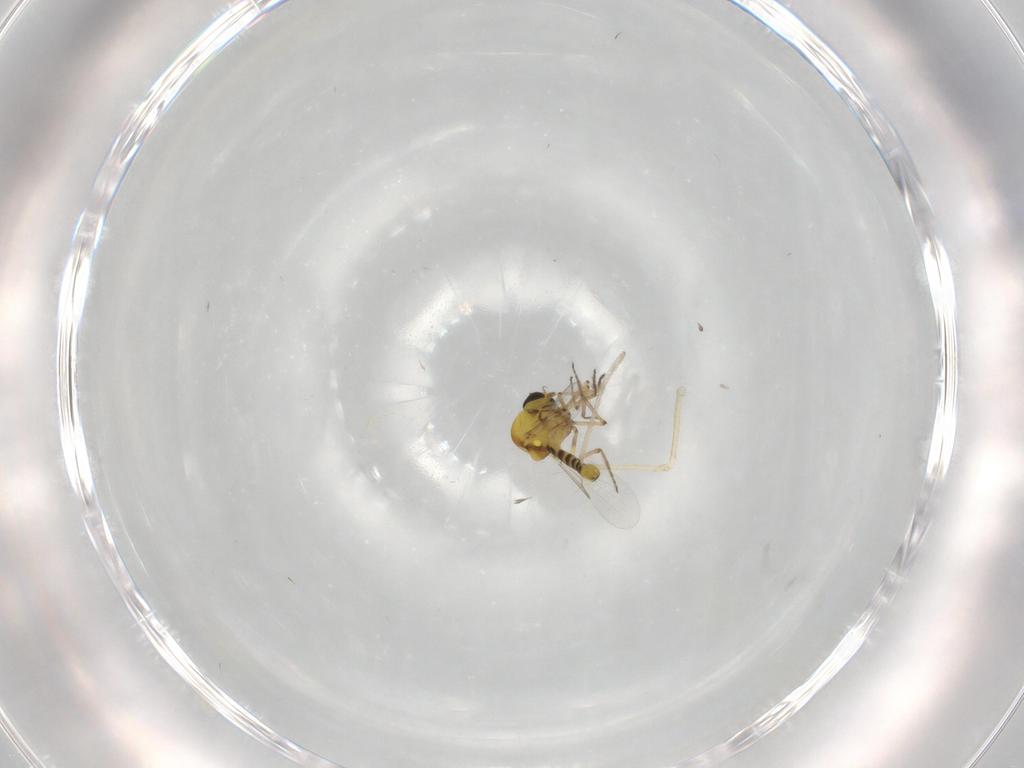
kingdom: Animalia
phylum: Arthropoda
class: Insecta
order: Diptera
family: Ceratopogonidae
